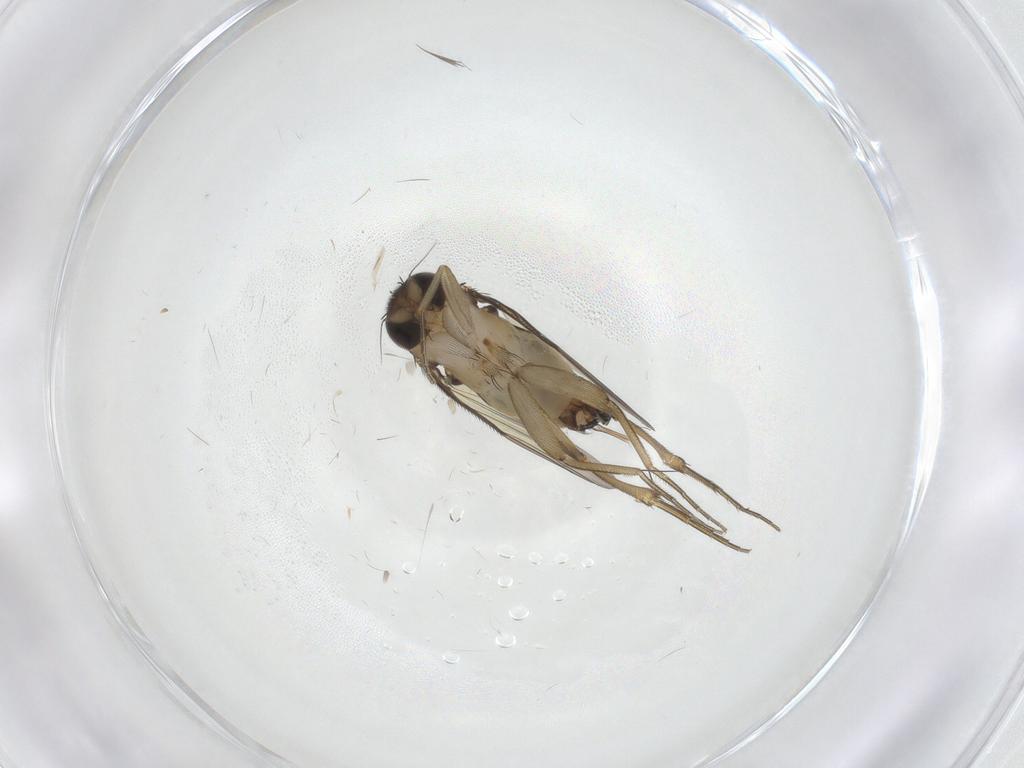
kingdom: Animalia
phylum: Arthropoda
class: Insecta
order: Diptera
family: Phoridae
